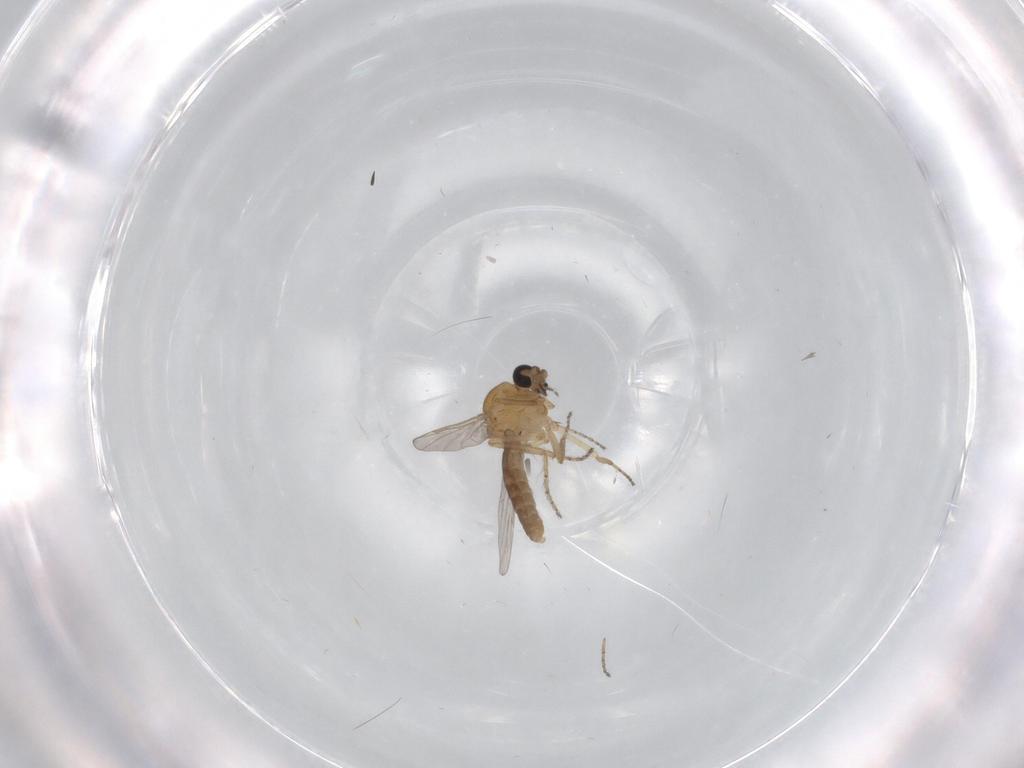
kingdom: Animalia
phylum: Arthropoda
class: Insecta
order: Diptera
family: Ceratopogonidae
